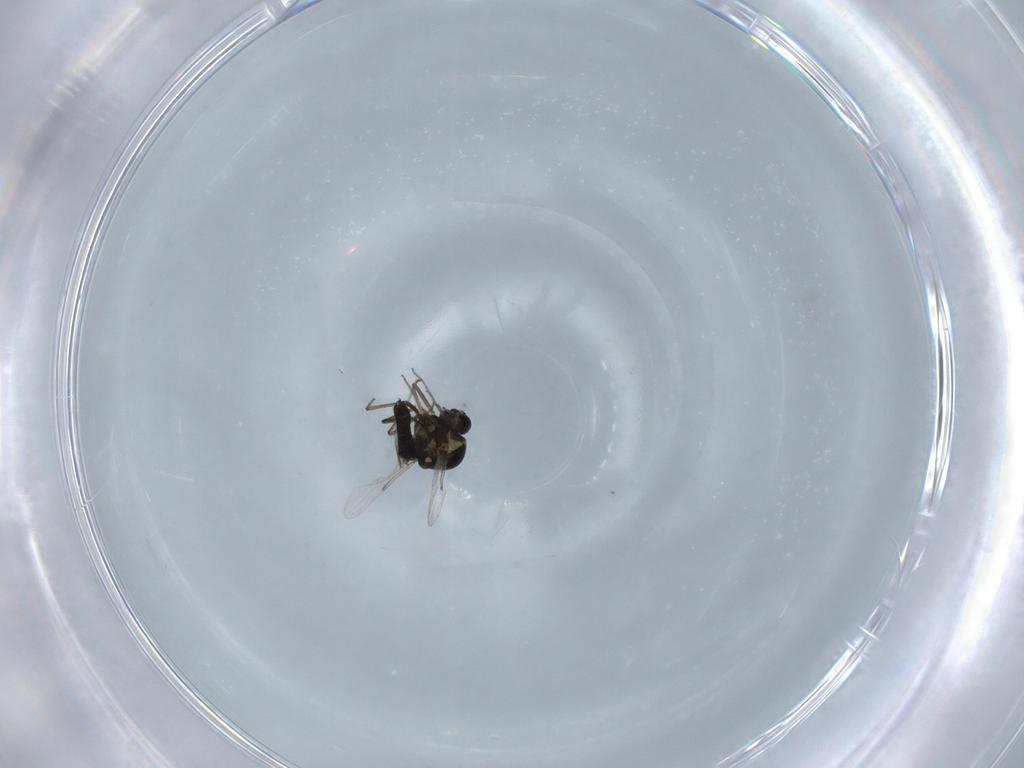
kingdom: Animalia
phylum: Arthropoda
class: Insecta
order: Diptera
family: Ceratopogonidae
